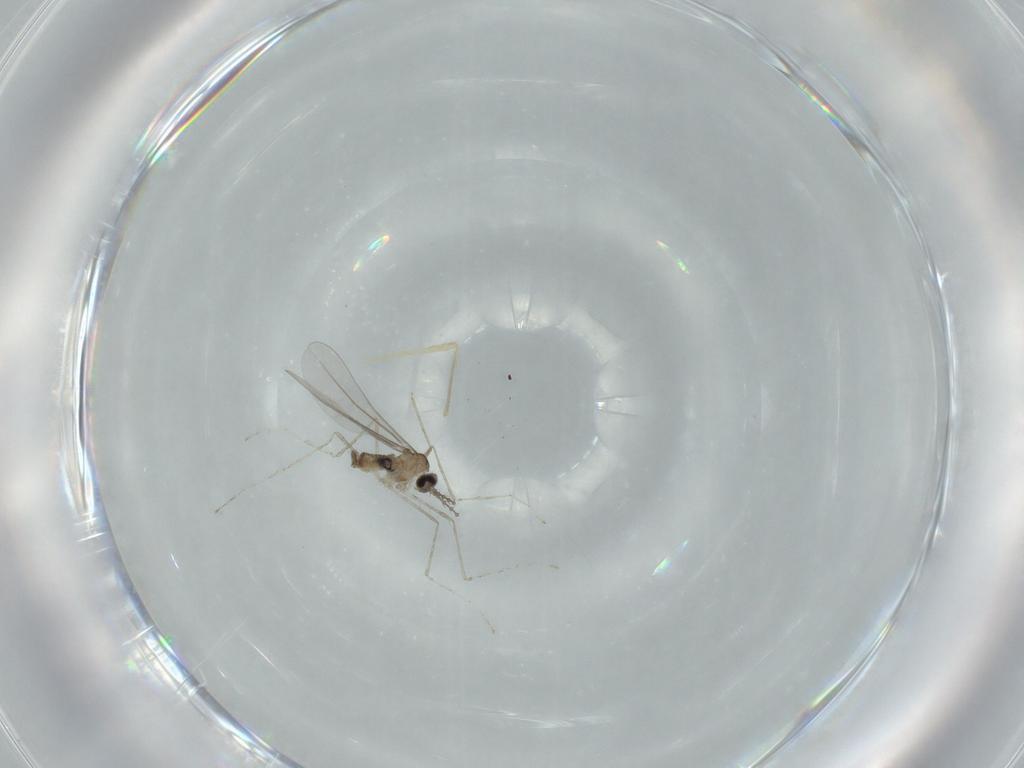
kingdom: Animalia
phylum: Arthropoda
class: Insecta
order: Diptera
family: Cecidomyiidae
